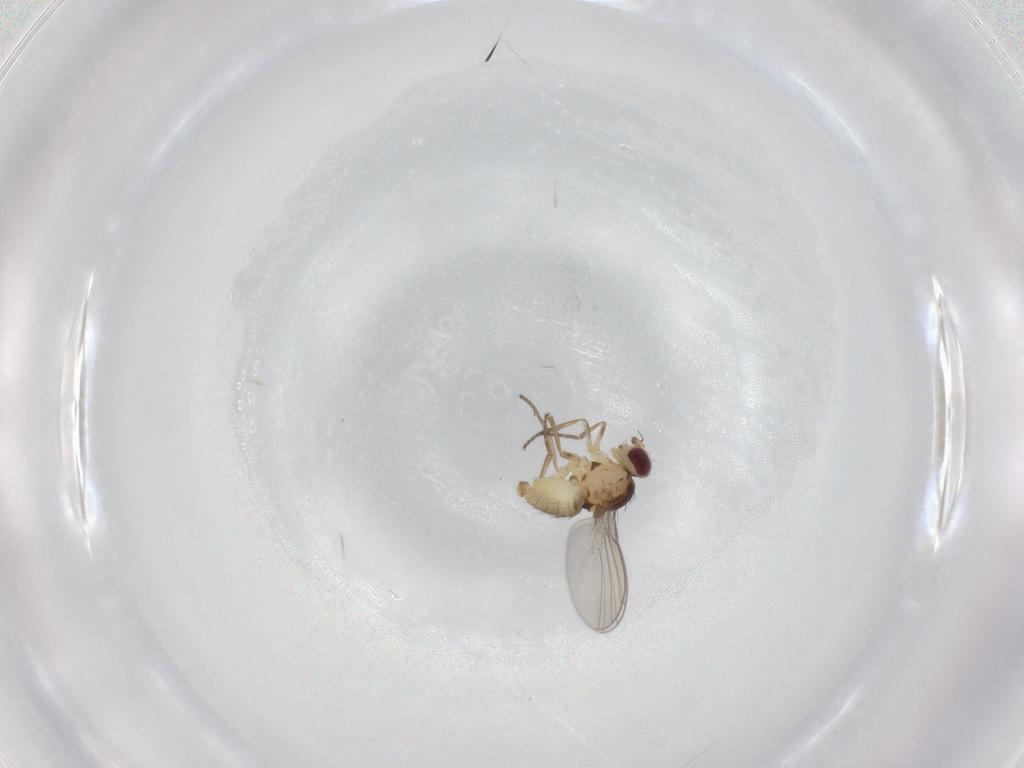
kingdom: Animalia
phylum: Arthropoda
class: Insecta
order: Diptera
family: Agromyzidae
